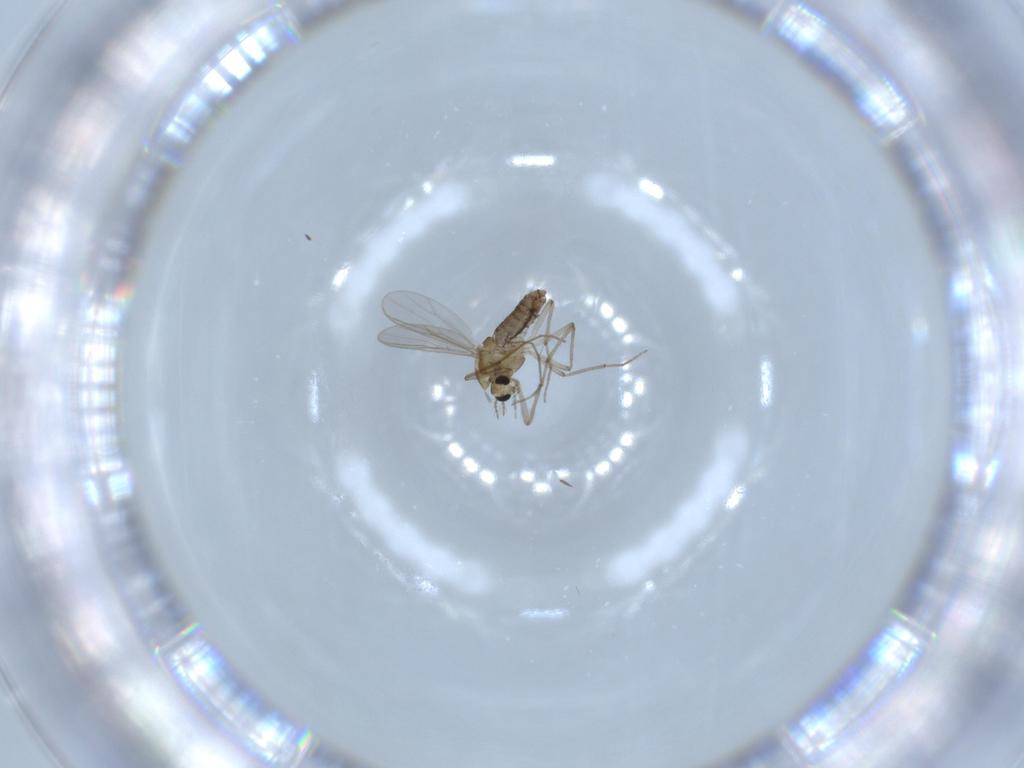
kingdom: Animalia
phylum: Arthropoda
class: Insecta
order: Diptera
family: Chironomidae
